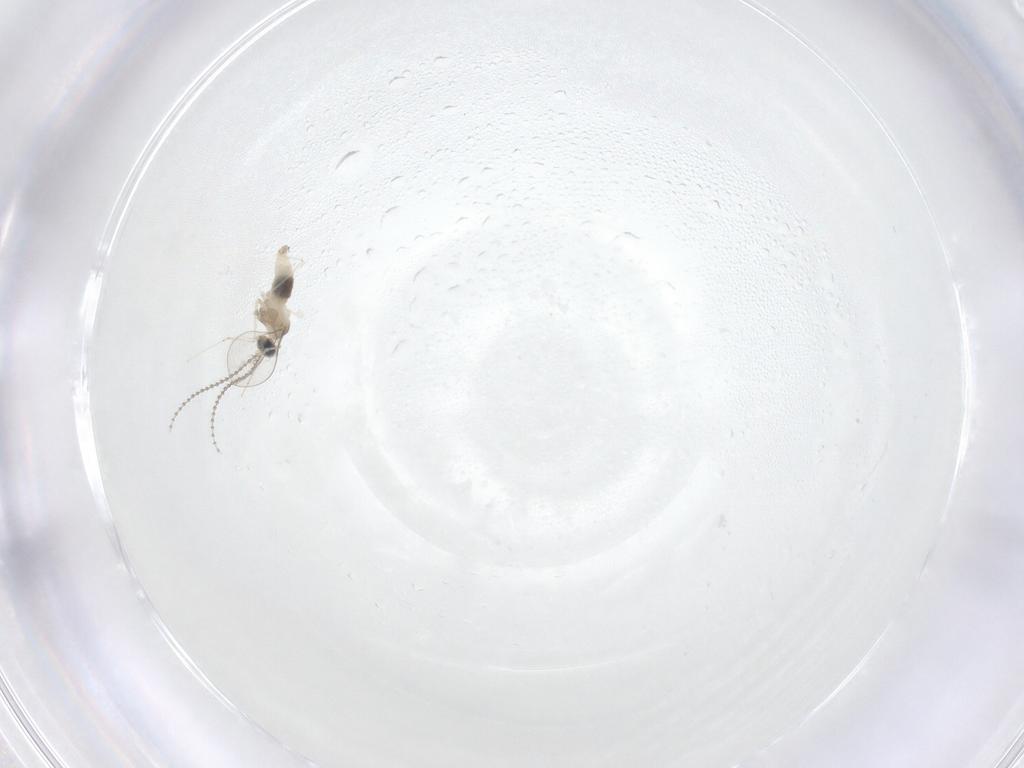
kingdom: Animalia
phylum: Arthropoda
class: Insecta
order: Diptera
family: Cecidomyiidae
